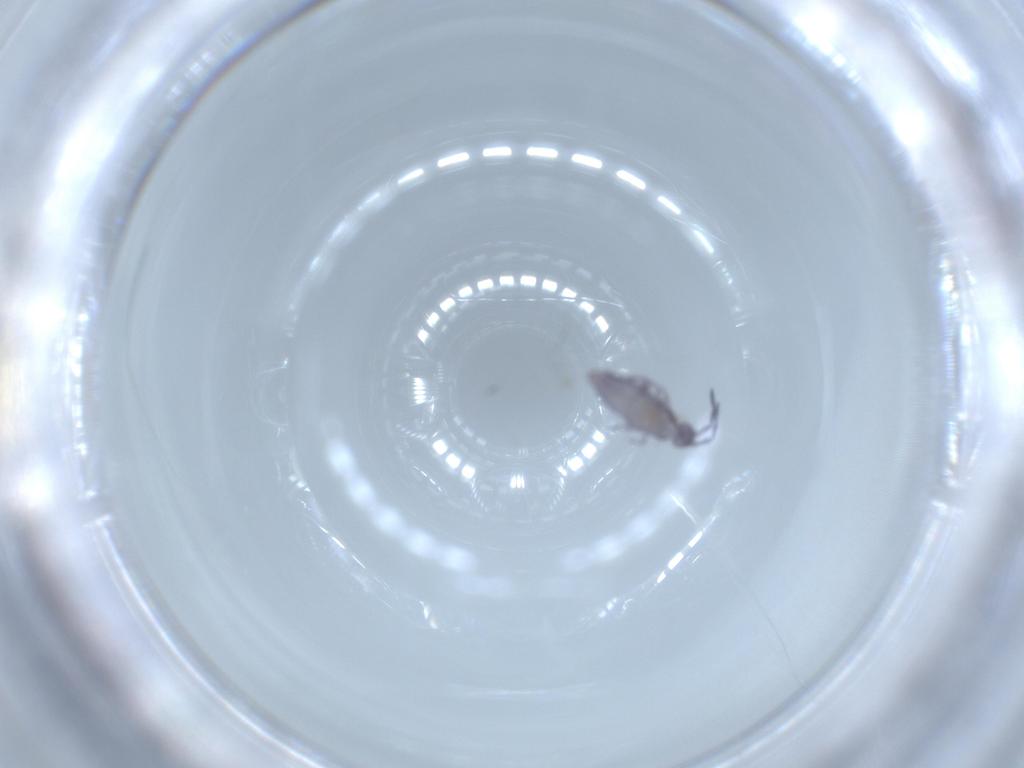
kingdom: Animalia
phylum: Arthropoda
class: Collembola
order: Entomobryomorpha
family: Entomobryidae
